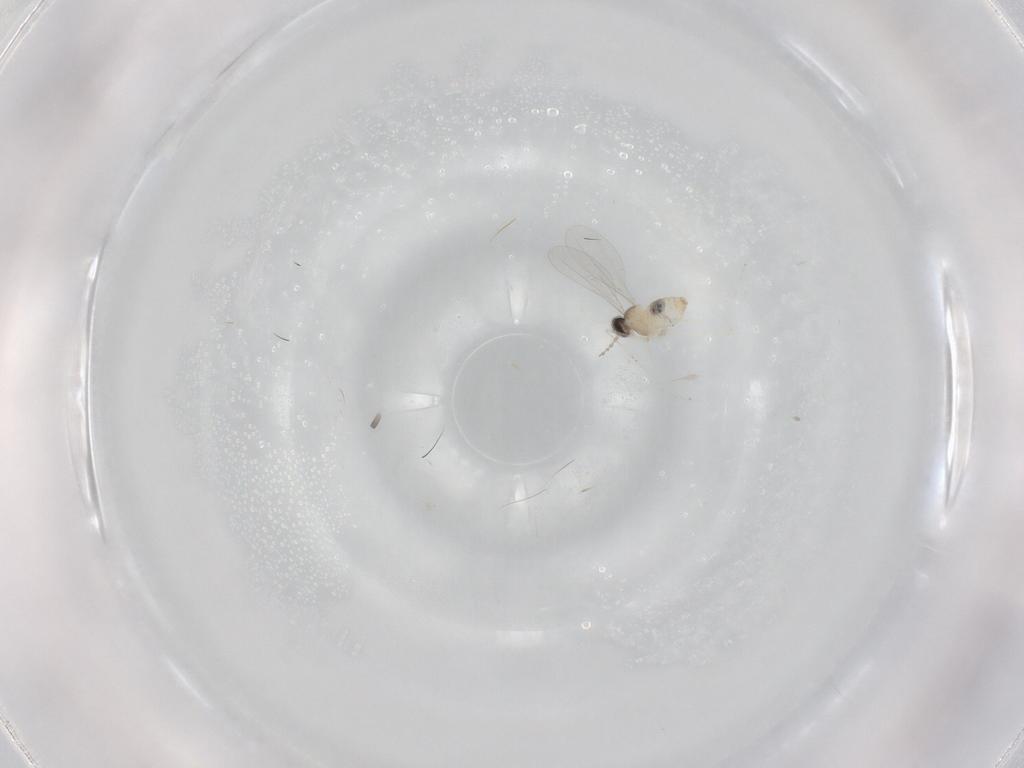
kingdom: Animalia
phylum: Arthropoda
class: Insecta
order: Diptera
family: Cecidomyiidae
